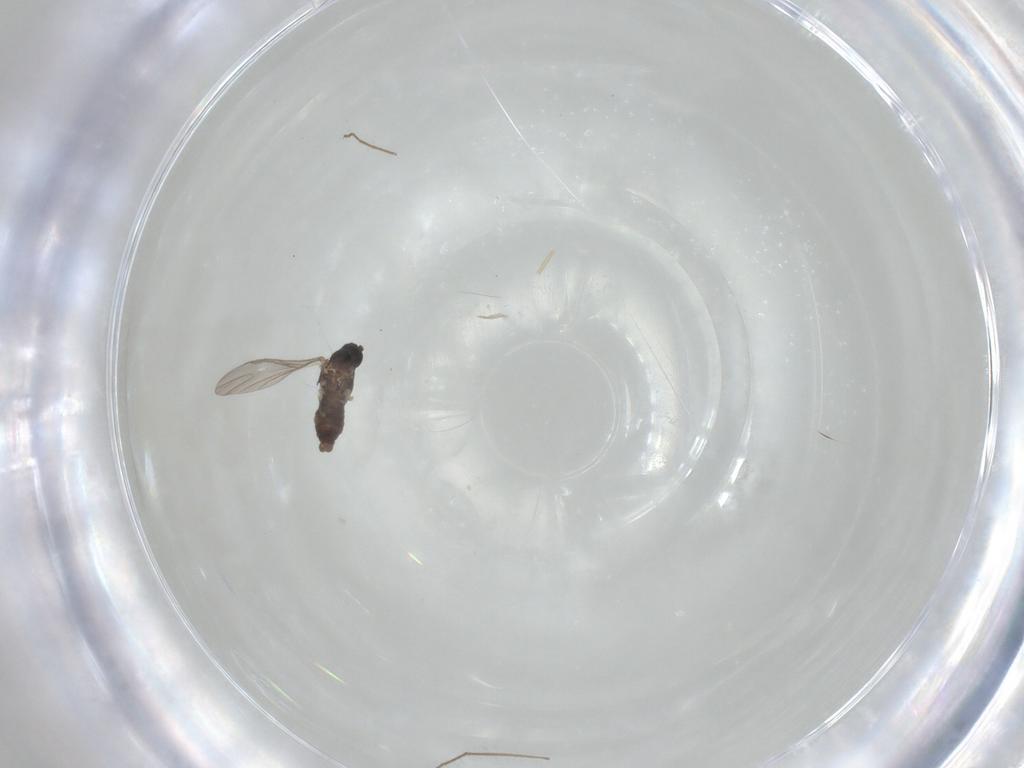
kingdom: Animalia
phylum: Arthropoda
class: Insecta
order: Diptera
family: Sciaridae
